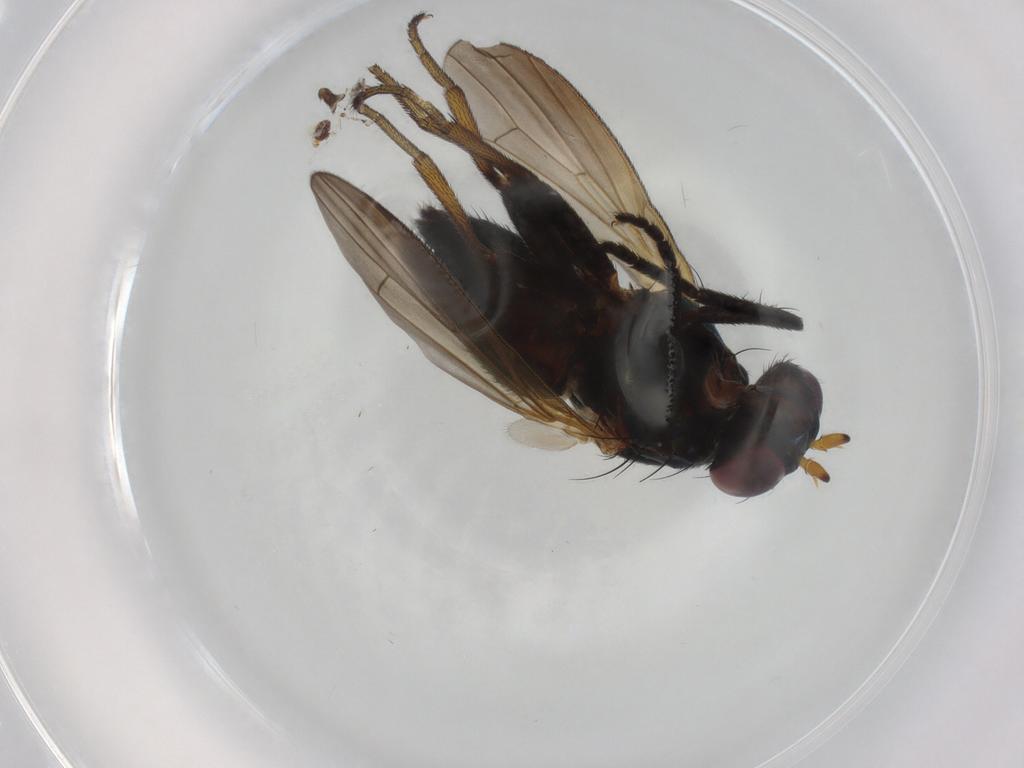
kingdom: Animalia
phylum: Arthropoda
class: Insecta
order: Diptera
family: Lauxaniidae
